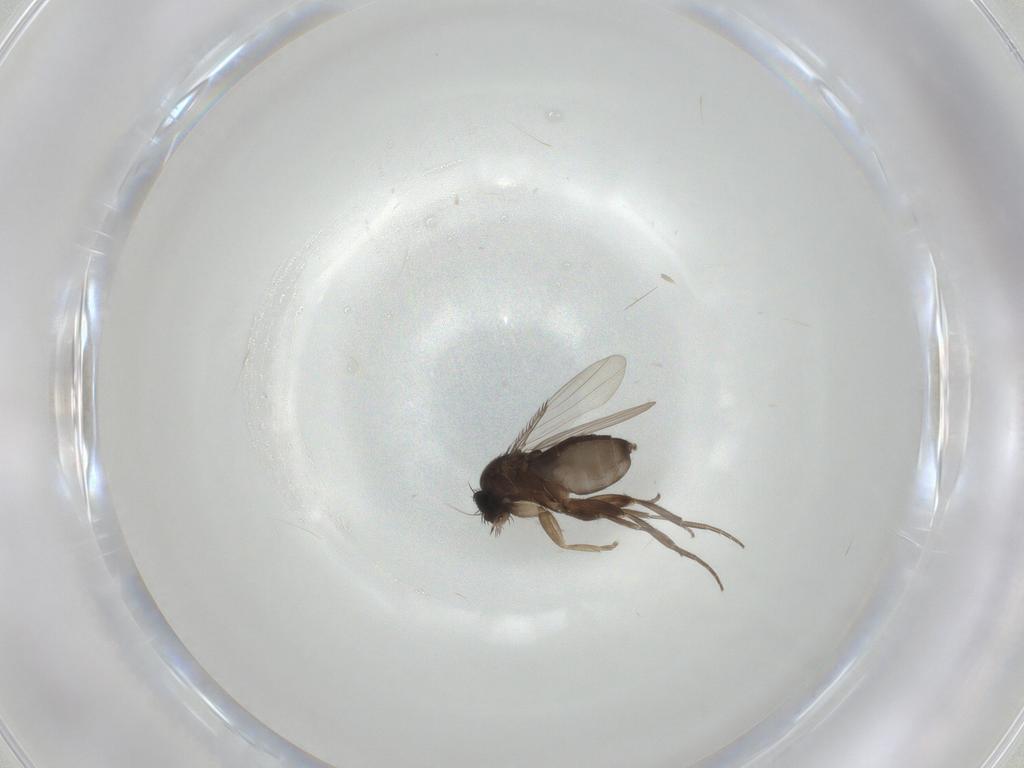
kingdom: Animalia
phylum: Arthropoda
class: Insecta
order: Diptera
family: Phoridae
